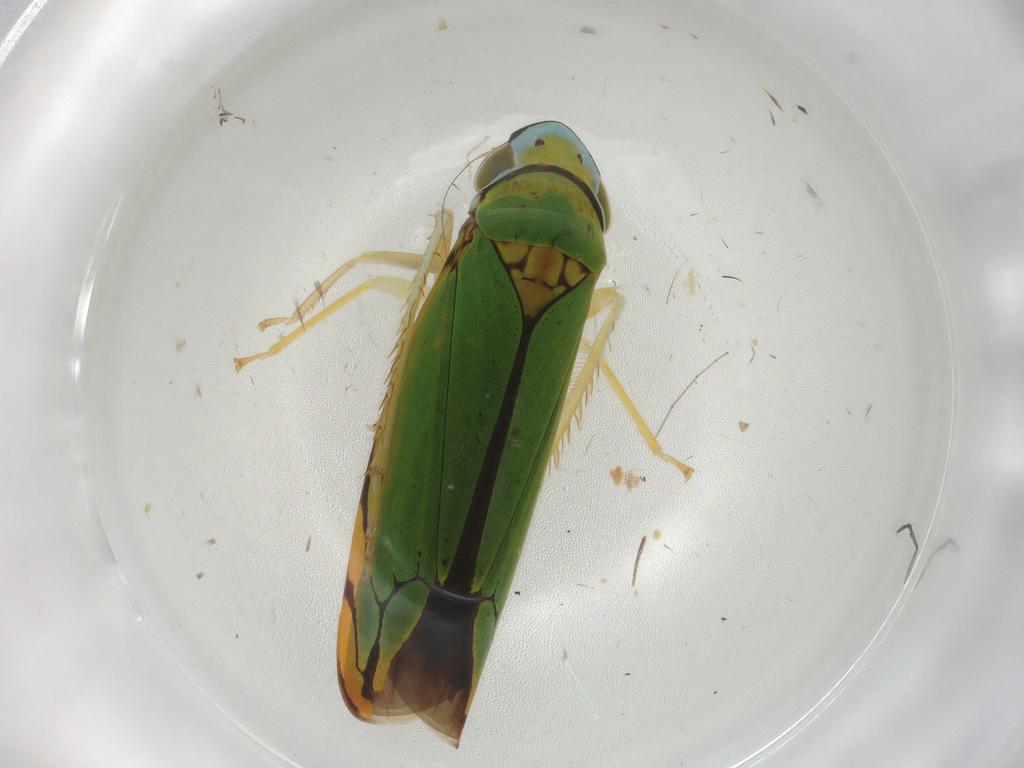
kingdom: Animalia
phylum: Arthropoda
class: Insecta
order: Hemiptera
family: Cicadellidae
